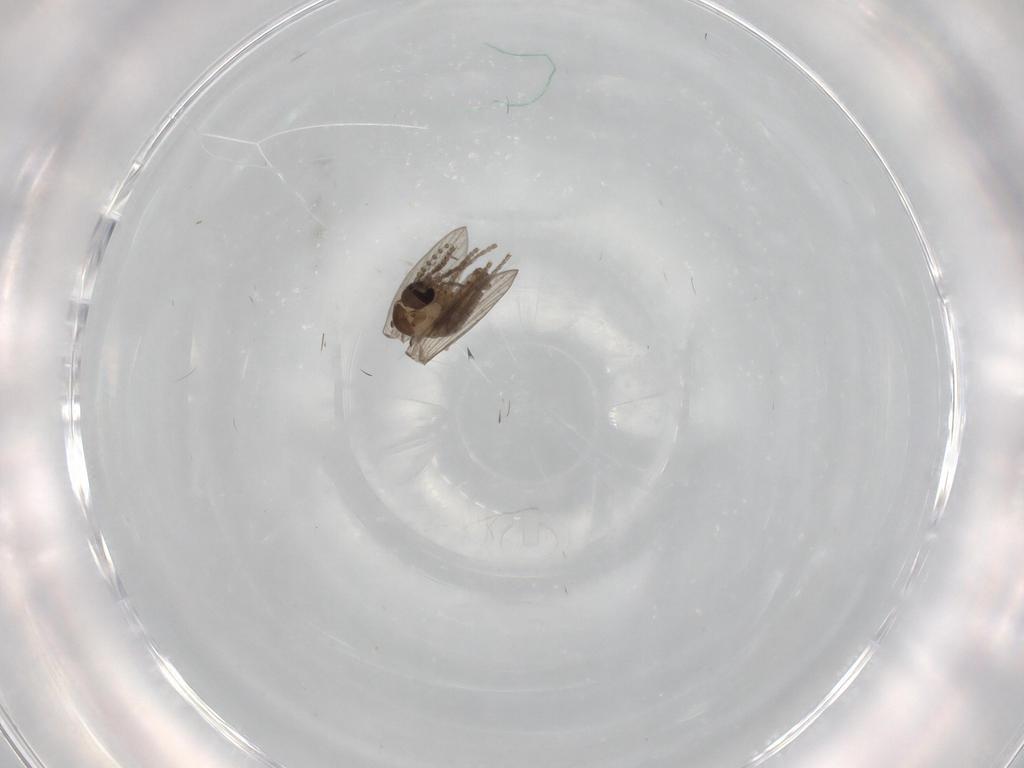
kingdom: Animalia
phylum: Arthropoda
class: Insecta
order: Diptera
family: Psychodidae
